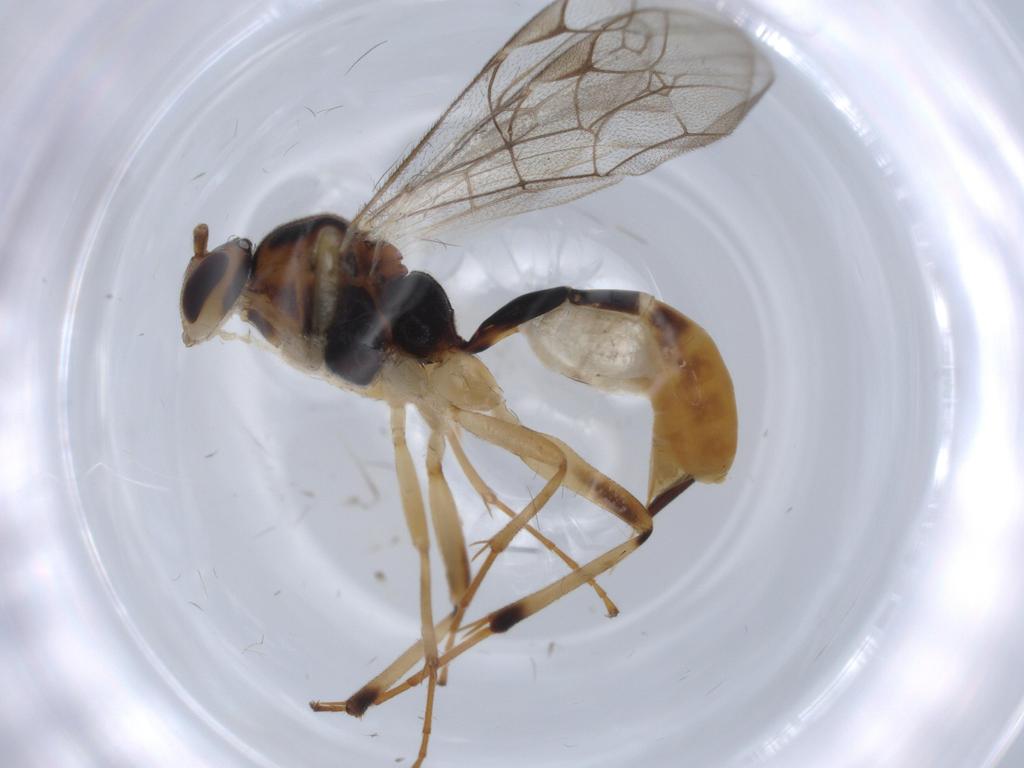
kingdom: Animalia
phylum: Arthropoda
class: Insecta
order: Hymenoptera
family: Ichneumonidae
